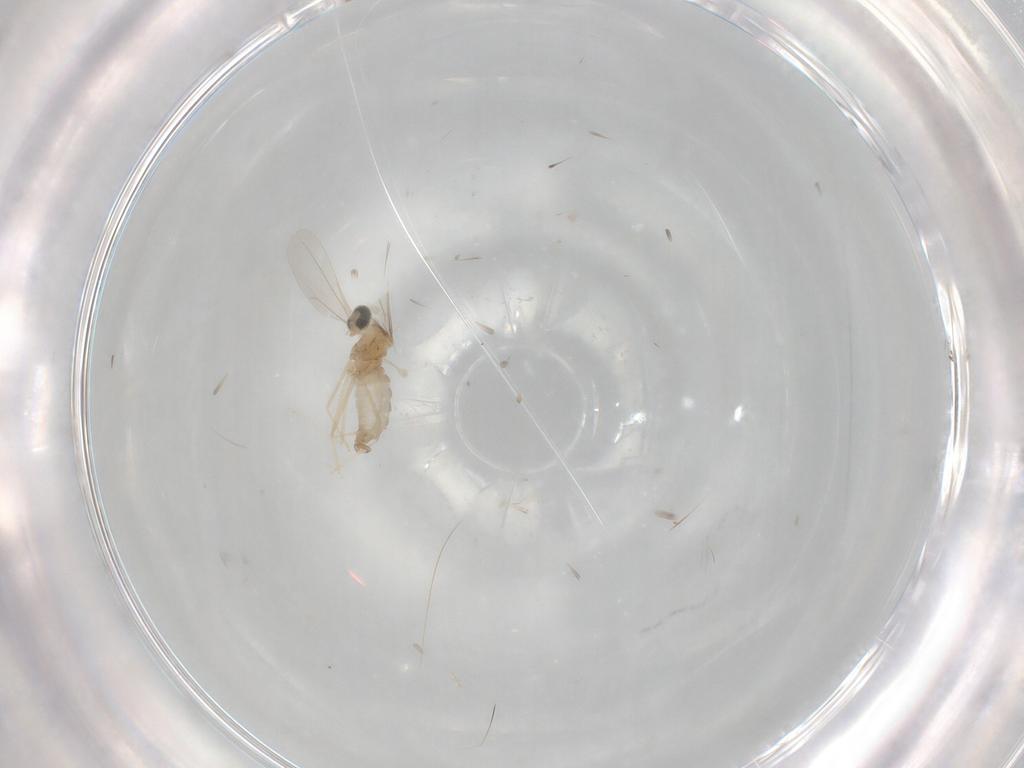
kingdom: Animalia
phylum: Arthropoda
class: Insecta
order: Diptera
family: Cecidomyiidae
